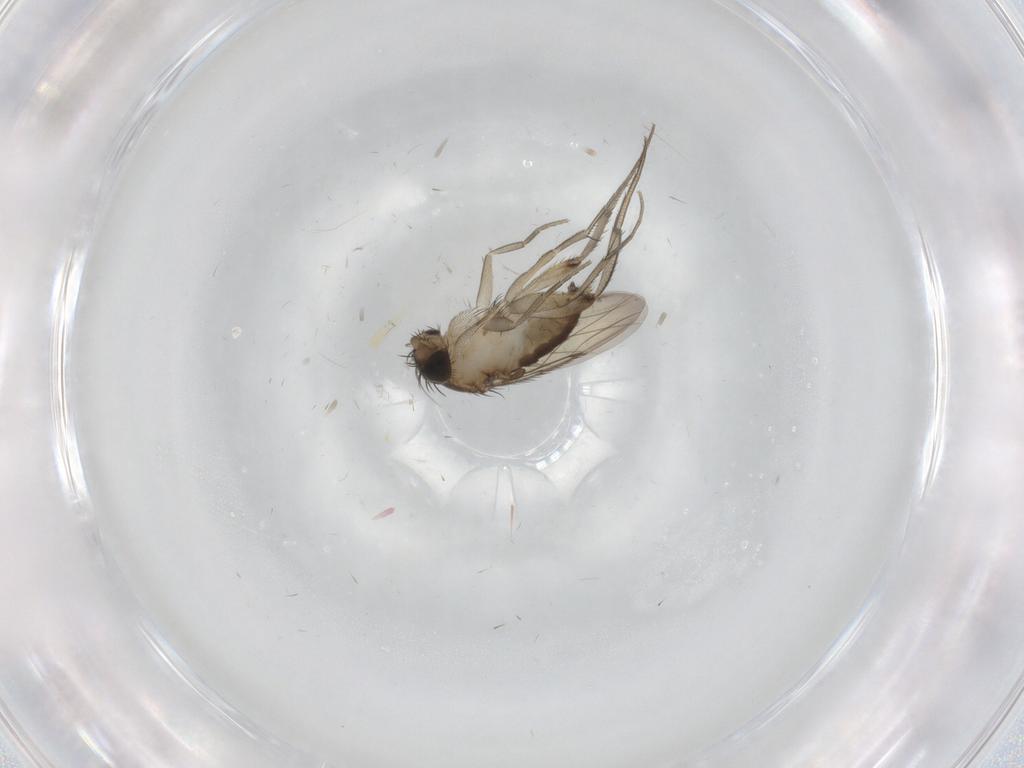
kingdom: Animalia
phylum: Arthropoda
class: Insecta
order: Diptera
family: Phoridae
